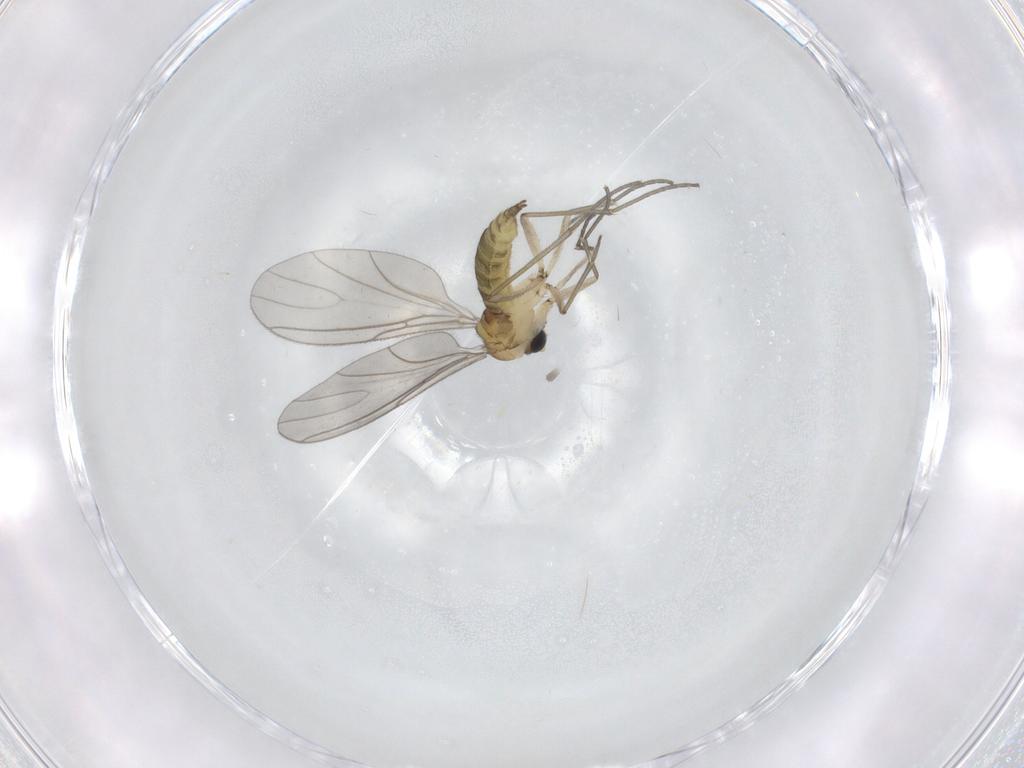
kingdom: Animalia
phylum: Arthropoda
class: Insecta
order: Diptera
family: Sciaridae
